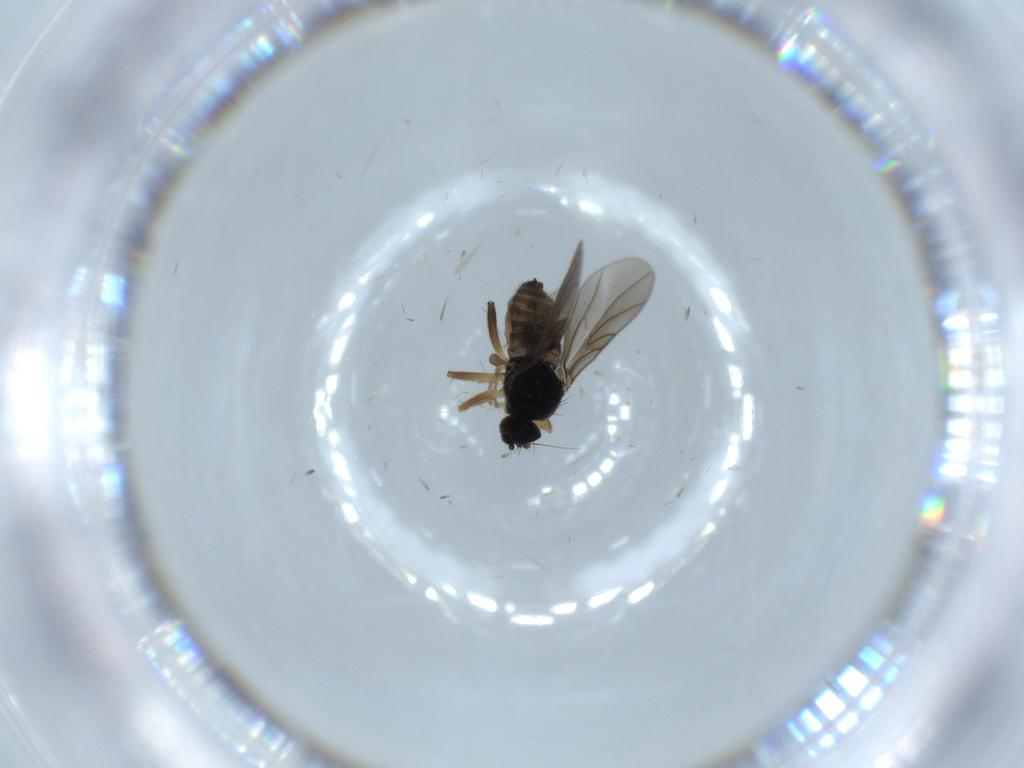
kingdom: Animalia
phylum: Arthropoda
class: Insecta
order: Diptera
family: Hybotidae
